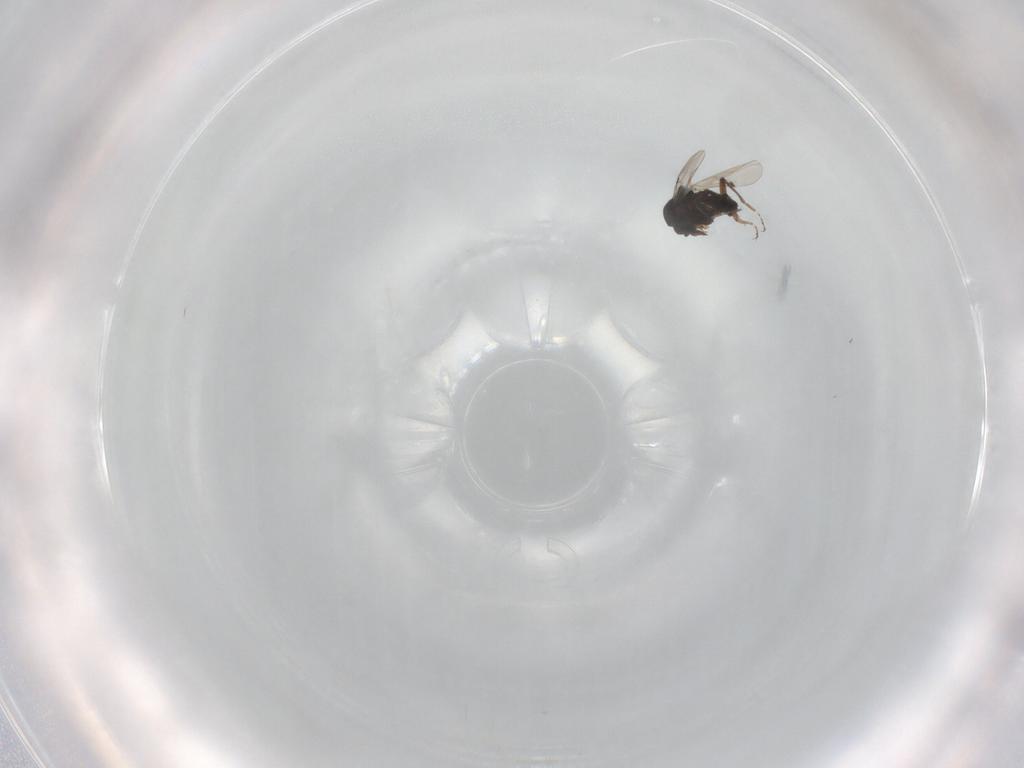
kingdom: Animalia
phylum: Arthropoda
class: Insecta
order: Diptera
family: Ceratopogonidae
